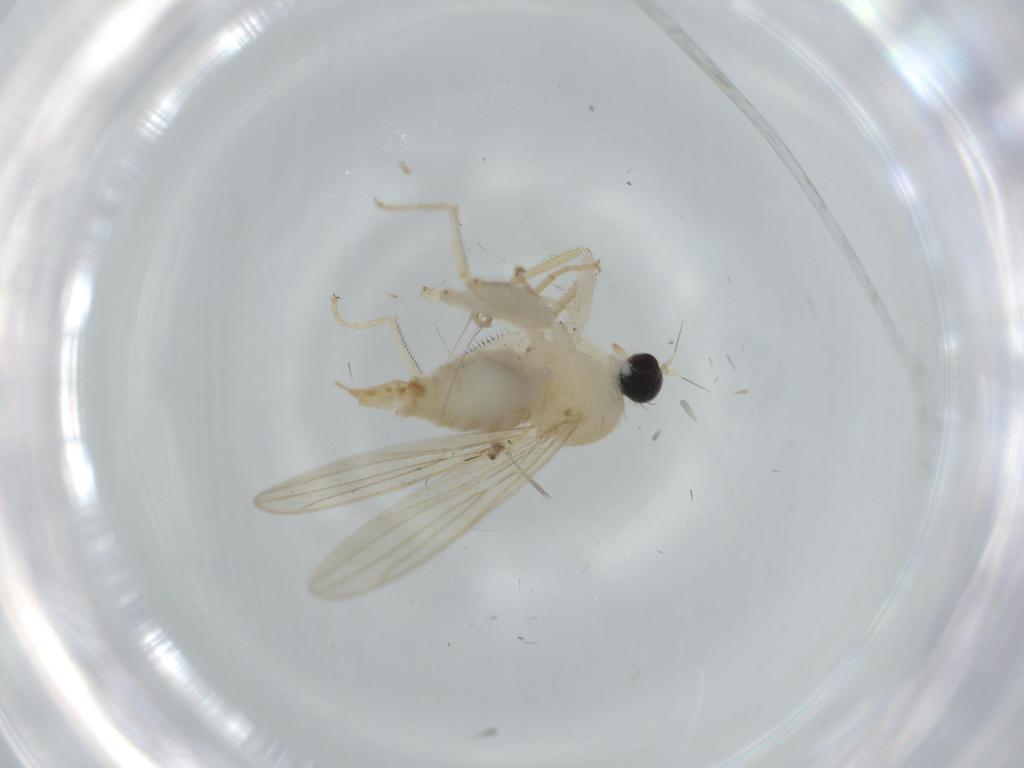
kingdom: Animalia
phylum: Arthropoda
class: Insecta
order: Diptera
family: Hybotidae
